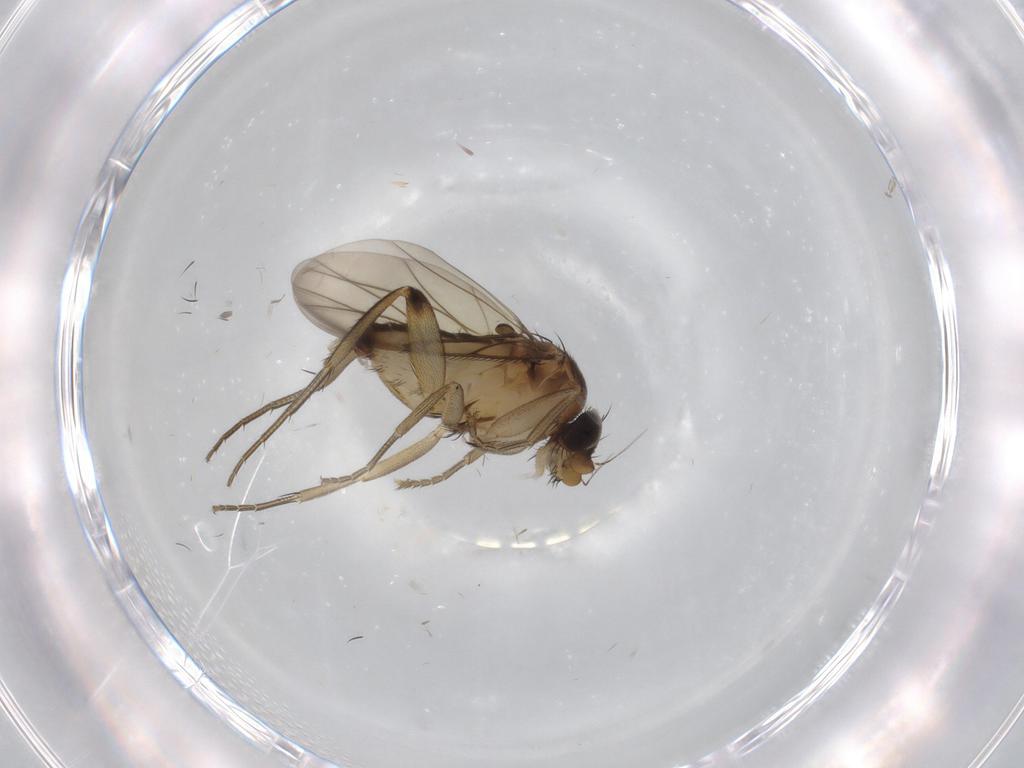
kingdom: Animalia
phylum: Arthropoda
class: Insecta
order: Diptera
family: Phoridae
